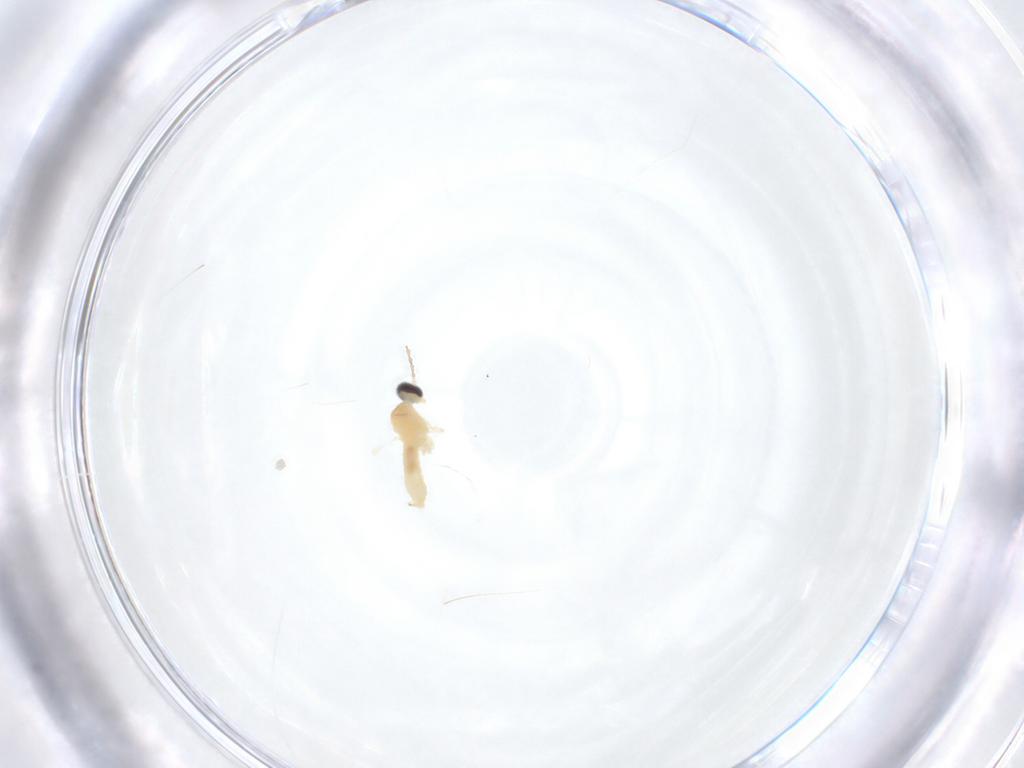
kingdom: Animalia
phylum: Arthropoda
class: Insecta
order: Diptera
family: Cecidomyiidae
